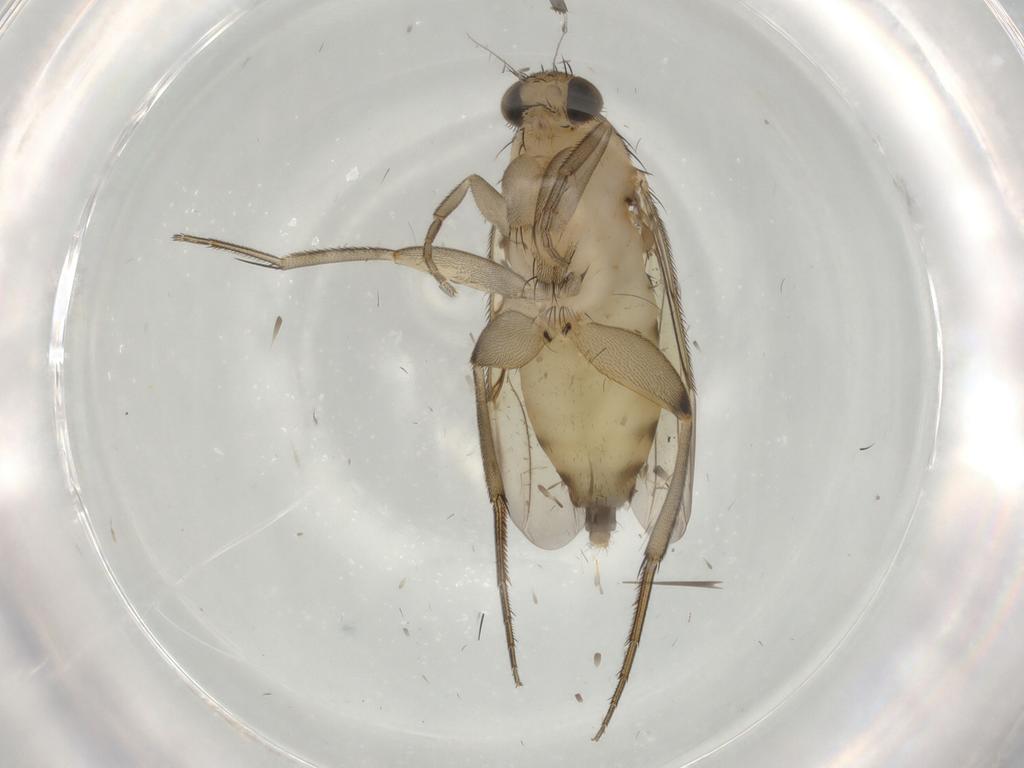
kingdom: Animalia
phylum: Arthropoda
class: Insecta
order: Diptera
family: Phoridae
